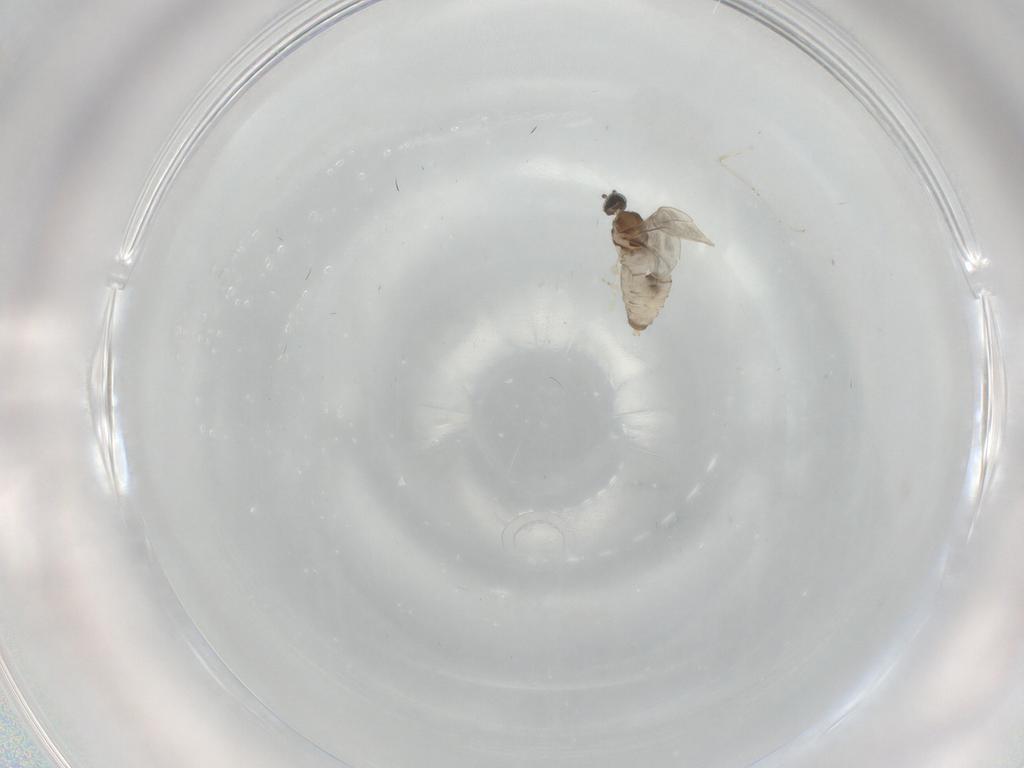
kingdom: Animalia
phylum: Arthropoda
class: Insecta
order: Diptera
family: Cecidomyiidae
